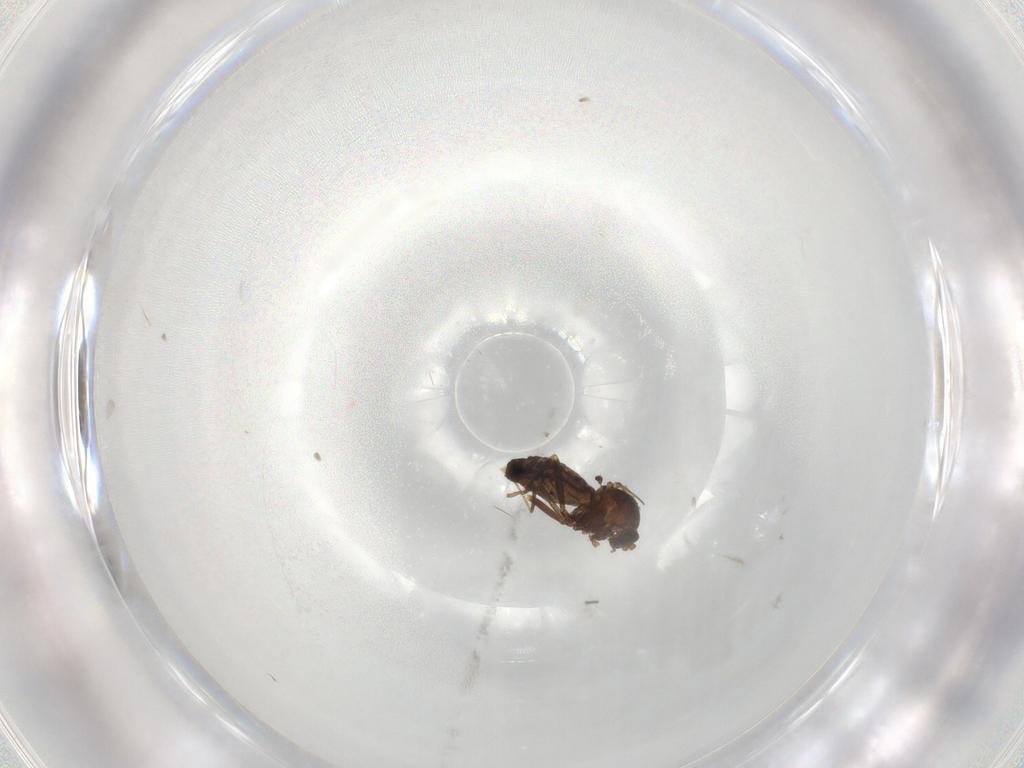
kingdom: Animalia
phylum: Arthropoda
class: Insecta
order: Diptera
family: Ceratopogonidae
